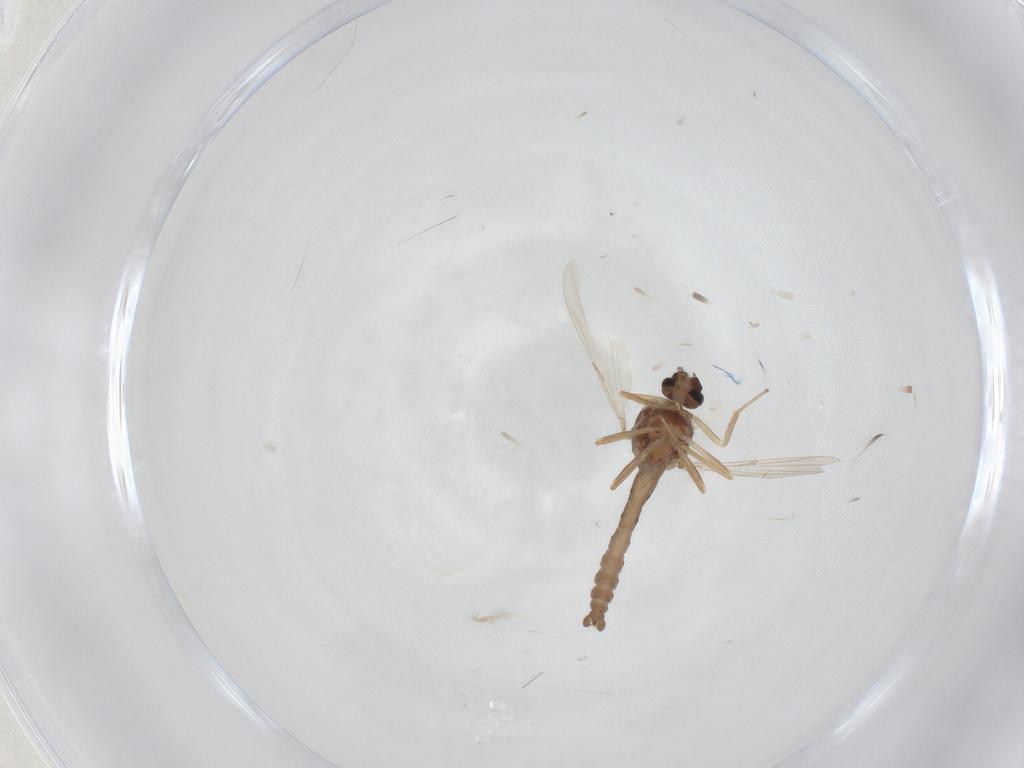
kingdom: Animalia
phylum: Arthropoda
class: Insecta
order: Diptera
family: Ceratopogonidae
